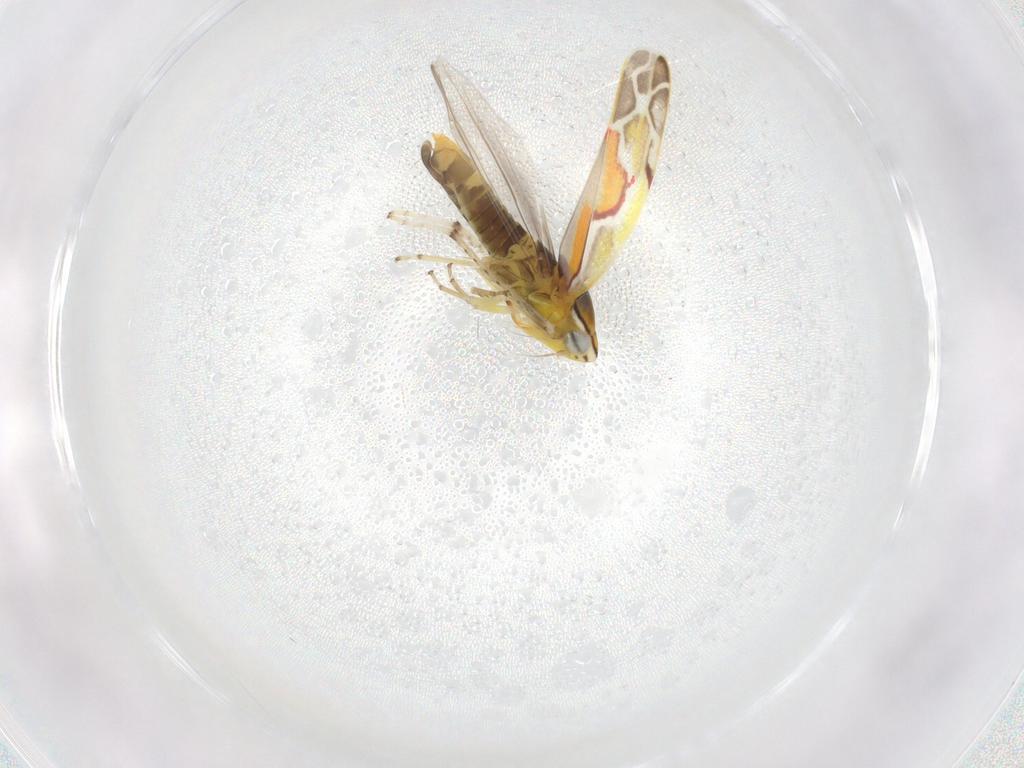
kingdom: Animalia
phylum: Arthropoda
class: Insecta
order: Hemiptera
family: Cicadellidae
